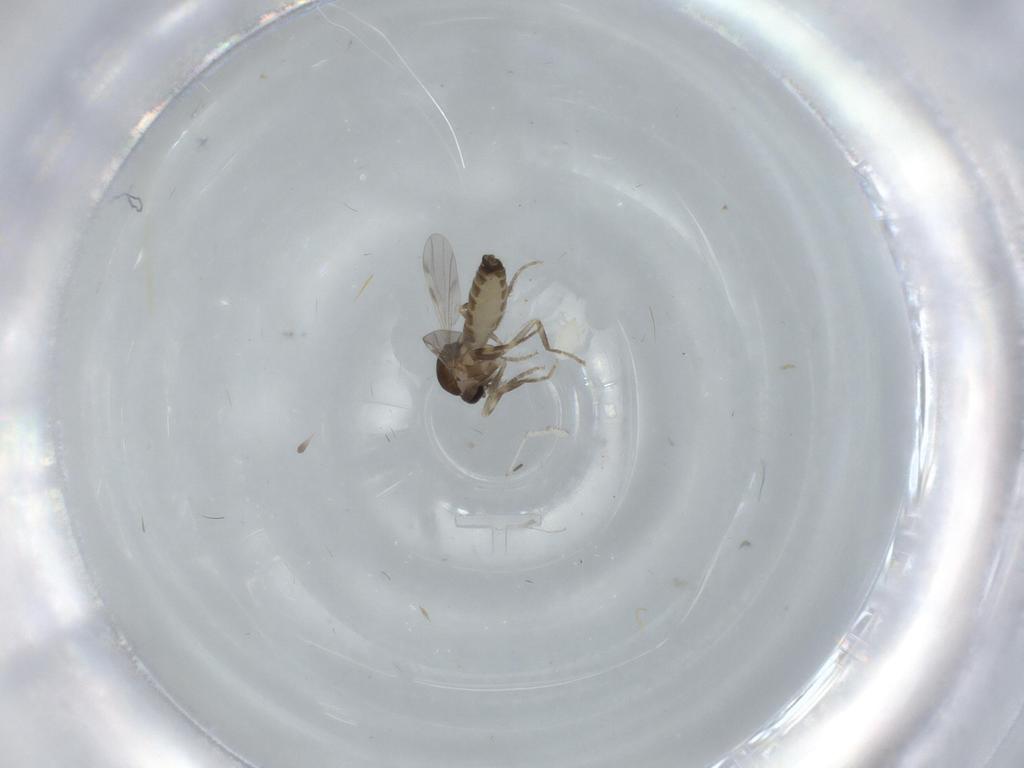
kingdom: Animalia
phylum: Arthropoda
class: Insecta
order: Diptera
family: Ceratopogonidae
